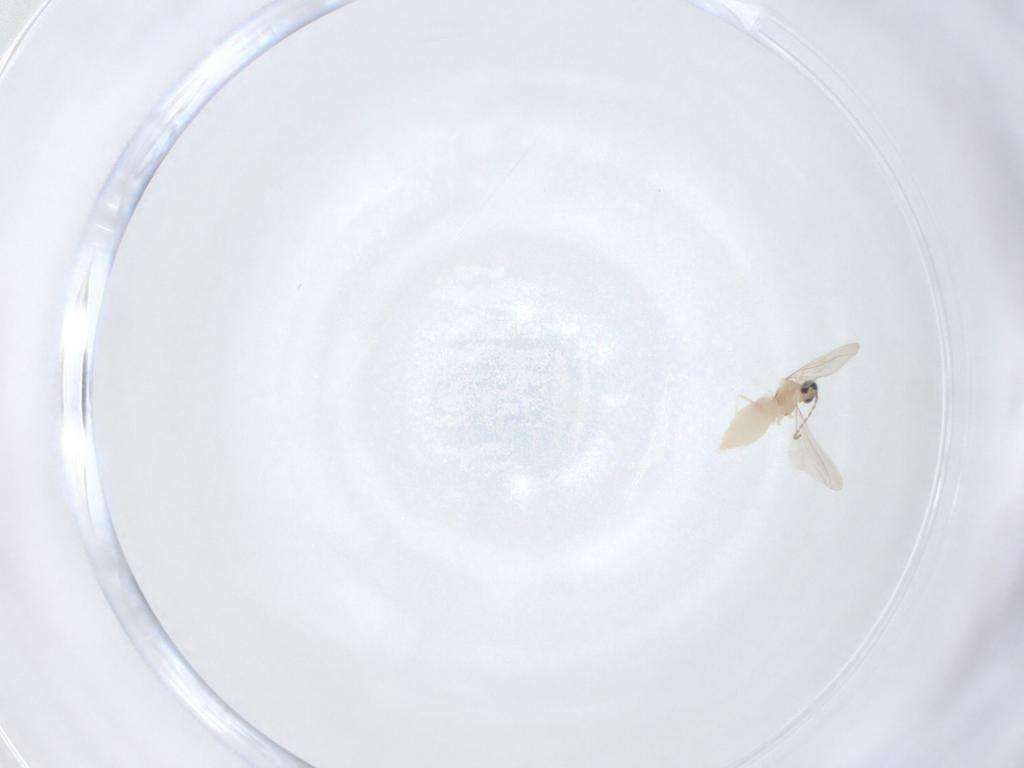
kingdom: Animalia
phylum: Arthropoda
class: Insecta
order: Diptera
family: Cecidomyiidae
